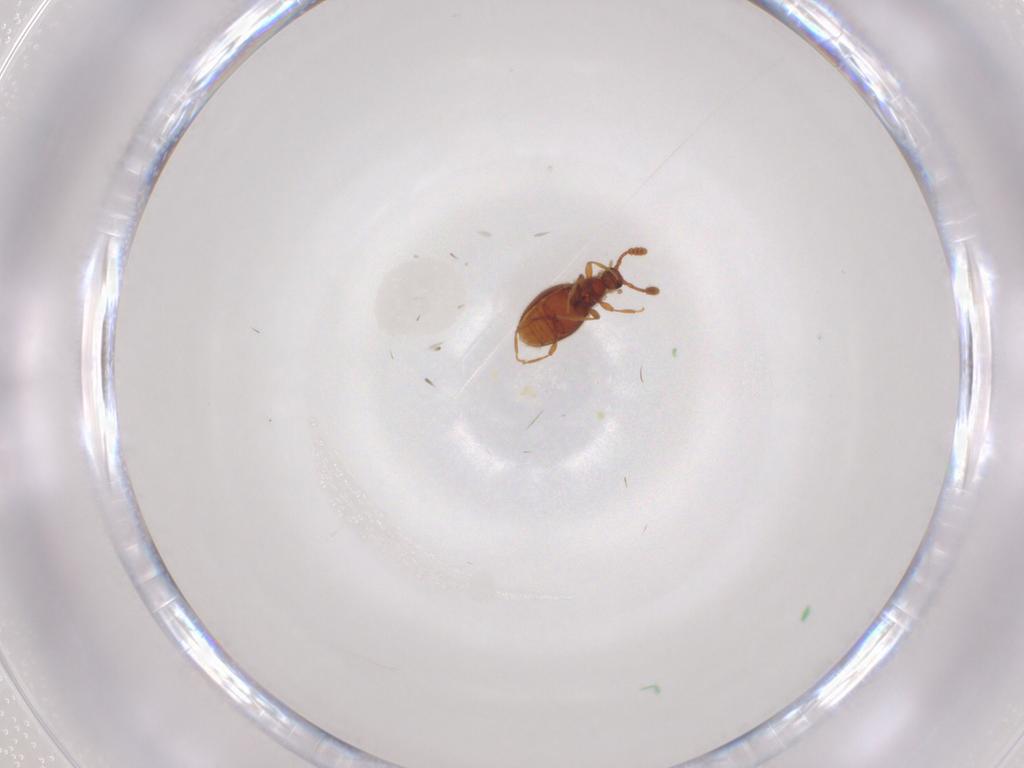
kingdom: Animalia
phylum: Arthropoda
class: Insecta
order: Coleoptera
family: Staphylinidae
